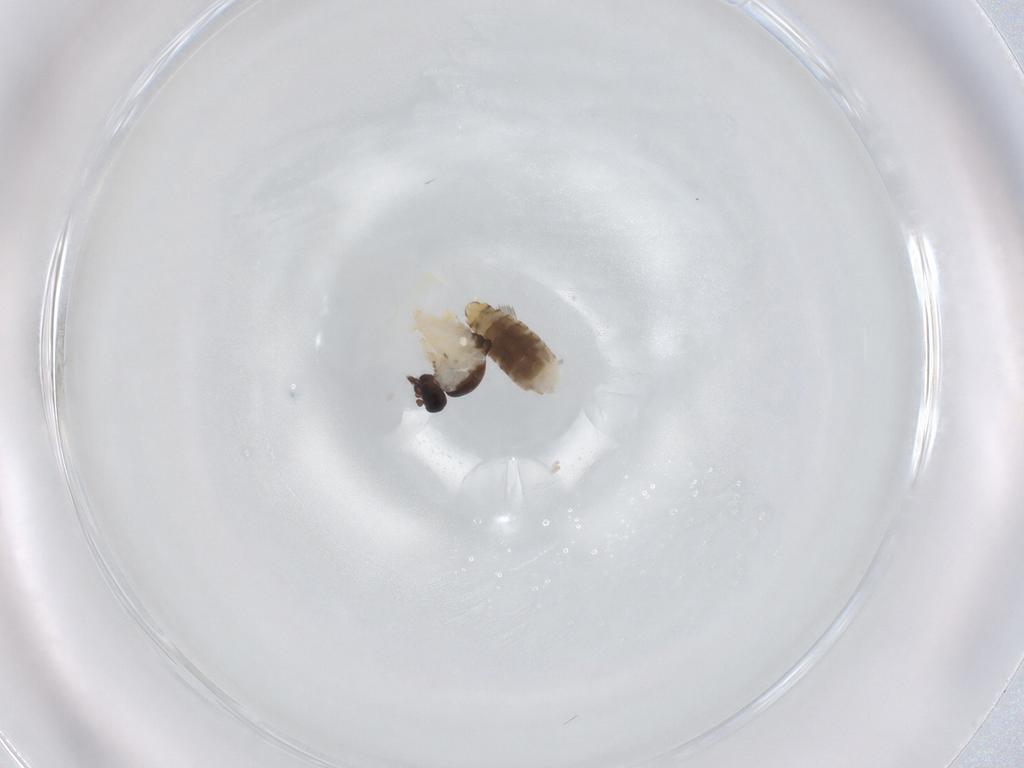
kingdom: Animalia
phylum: Arthropoda
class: Insecta
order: Diptera
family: Ceratopogonidae
